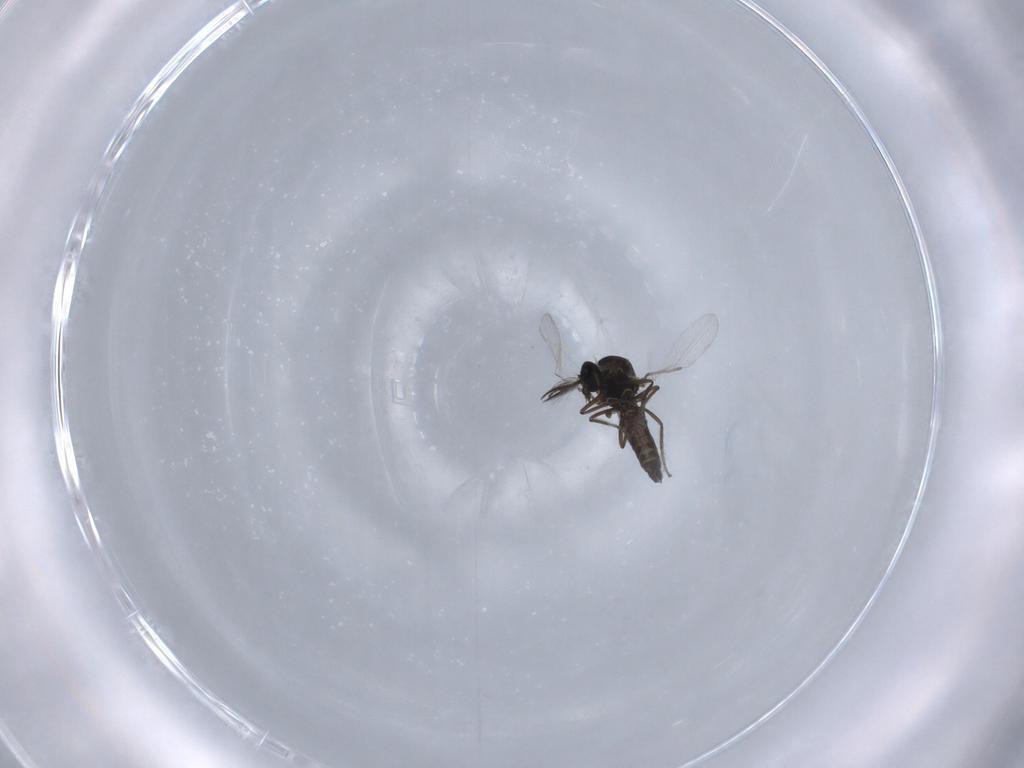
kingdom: Animalia
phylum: Arthropoda
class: Insecta
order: Diptera
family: Ceratopogonidae
